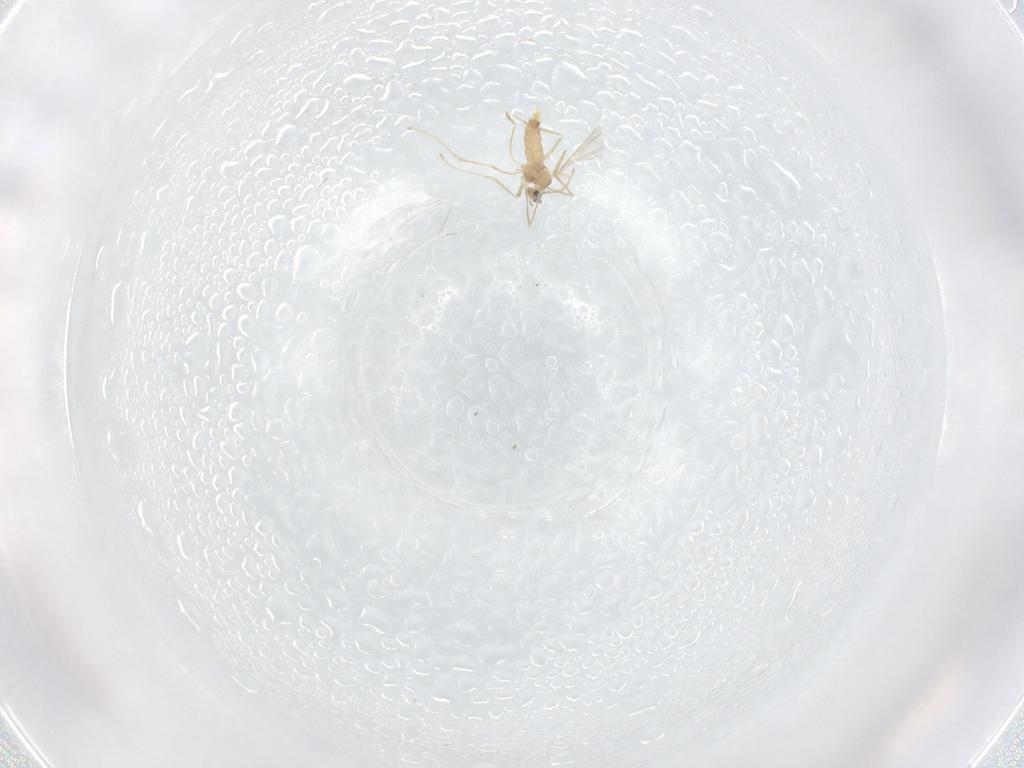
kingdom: Animalia
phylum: Arthropoda
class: Insecta
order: Diptera
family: Cecidomyiidae
